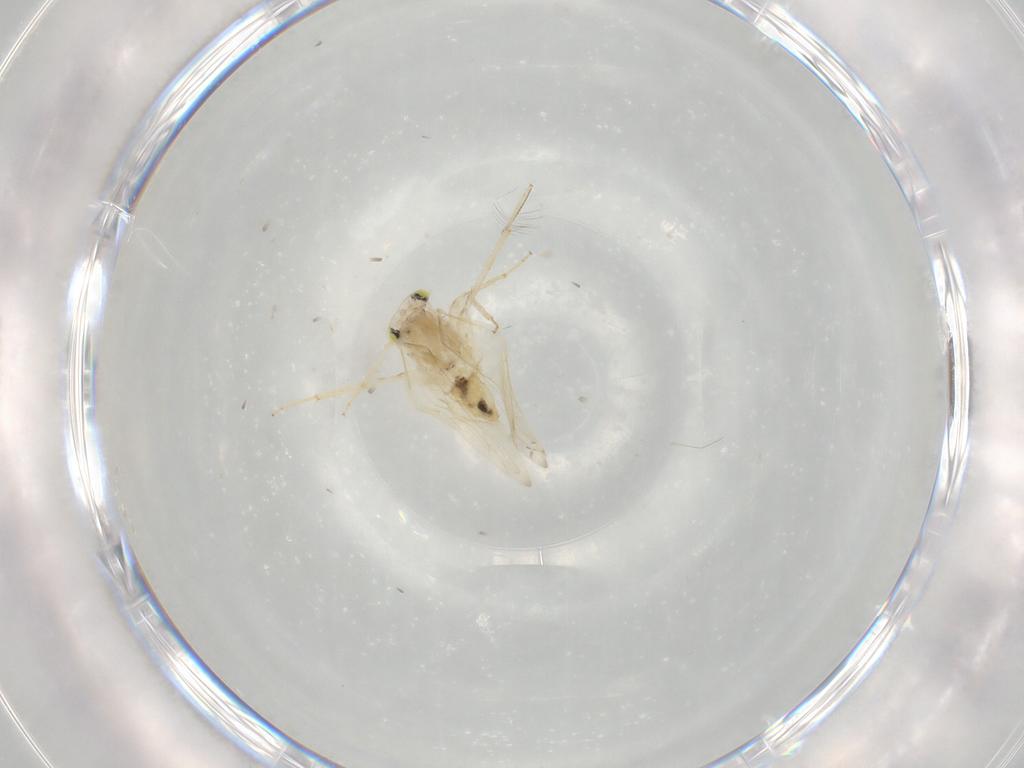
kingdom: Animalia
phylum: Arthropoda
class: Insecta
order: Psocodea
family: Lepidopsocidae
